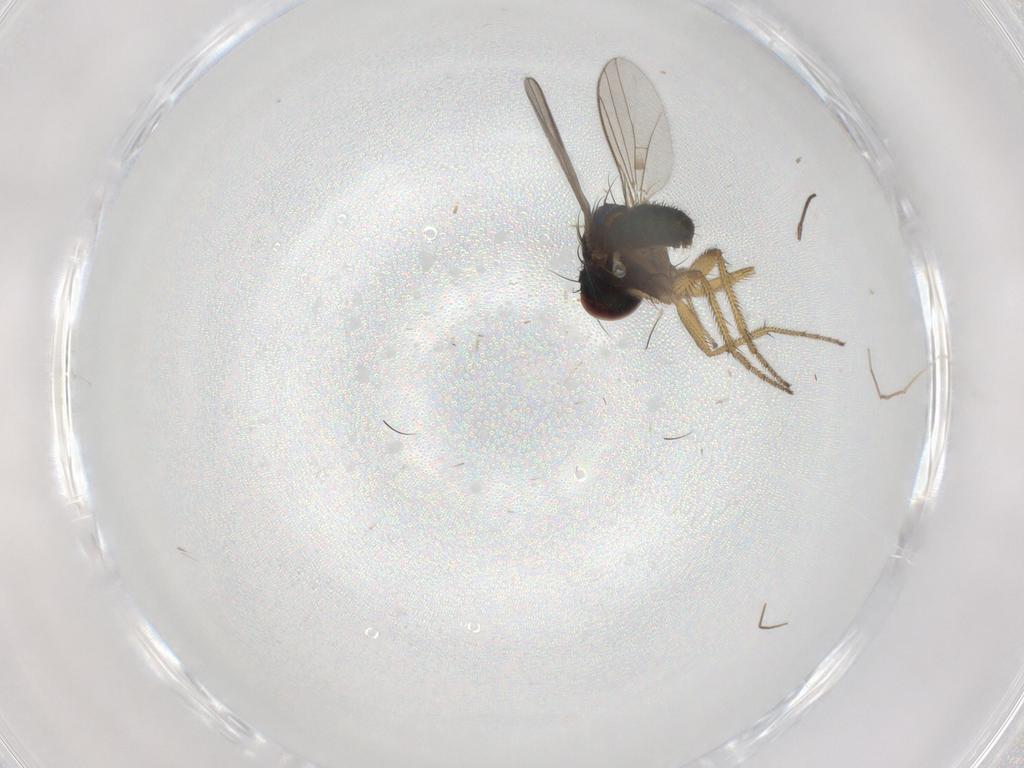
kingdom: Animalia
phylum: Arthropoda
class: Insecta
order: Diptera
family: Dolichopodidae
